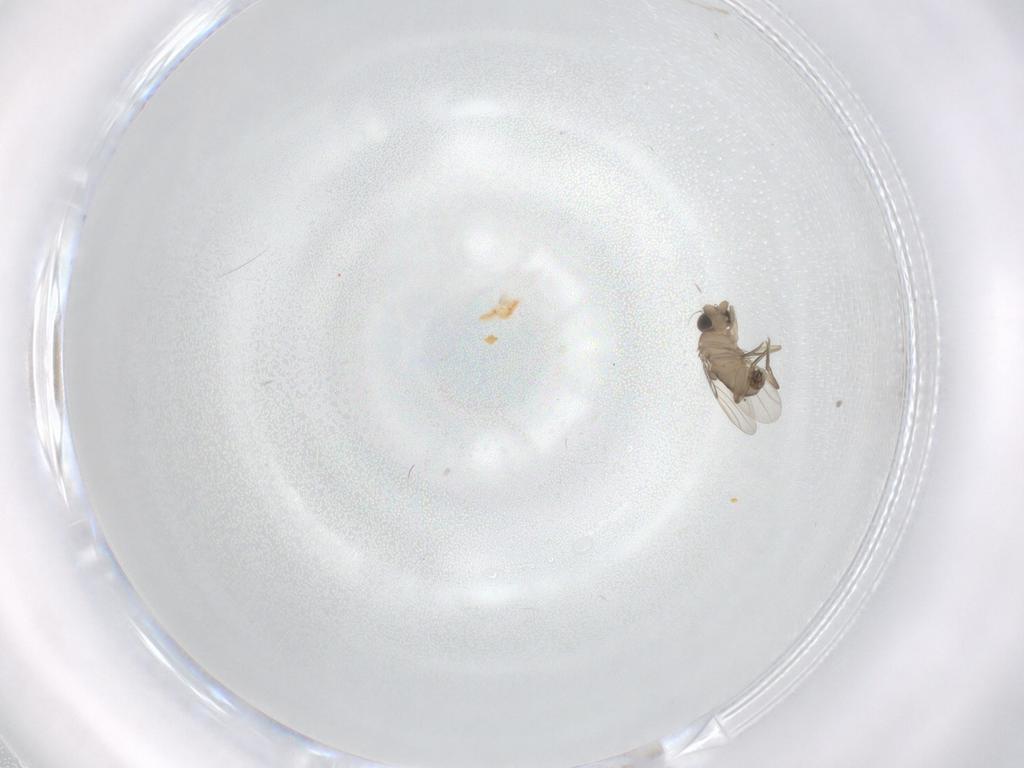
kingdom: Animalia
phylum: Arthropoda
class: Insecta
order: Diptera
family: Phoridae
